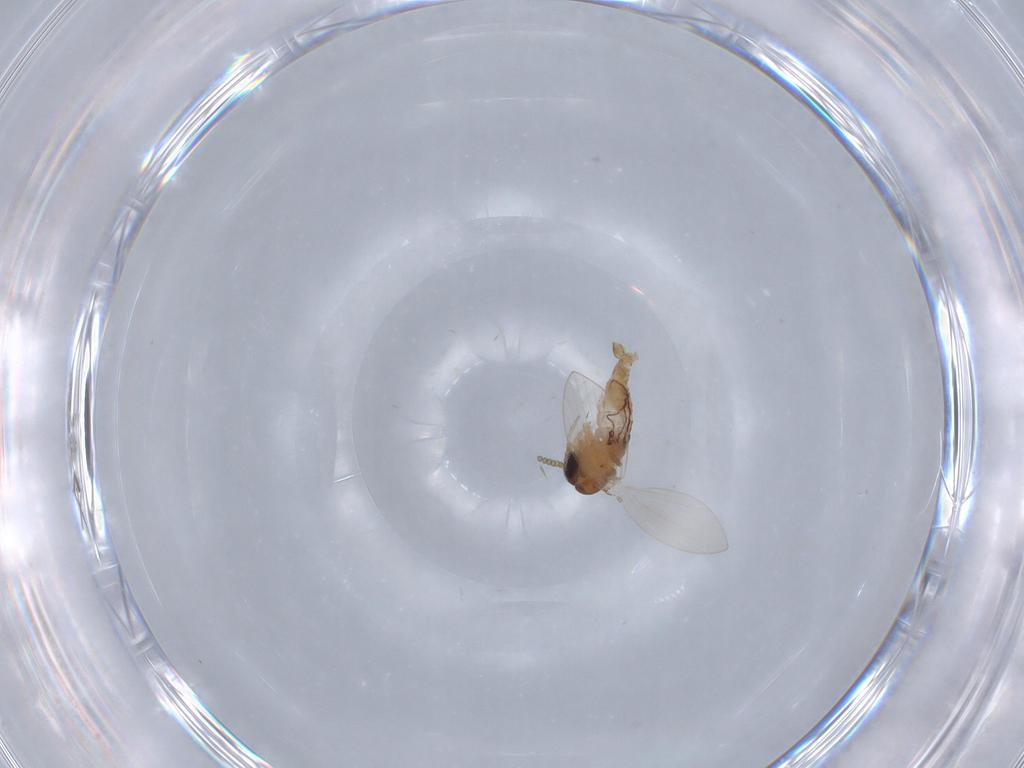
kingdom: Animalia
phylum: Arthropoda
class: Insecta
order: Diptera
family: Psychodidae
